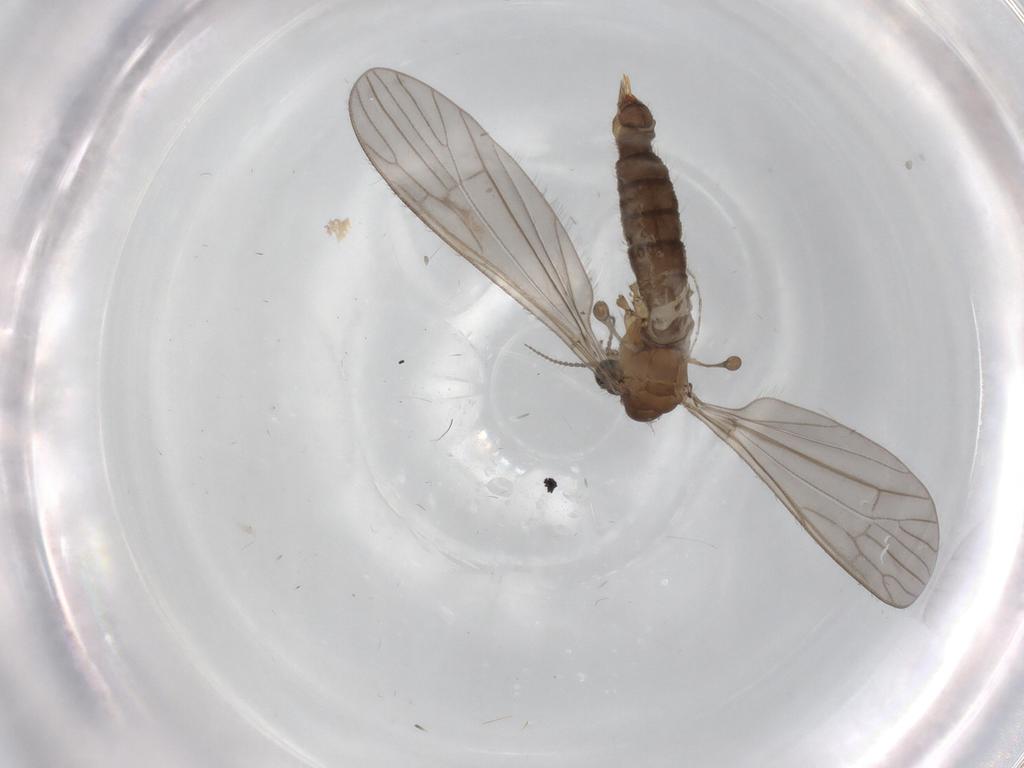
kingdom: Animalia
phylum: Arthropoda
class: Insecta
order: Diptera
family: Limoniidae
